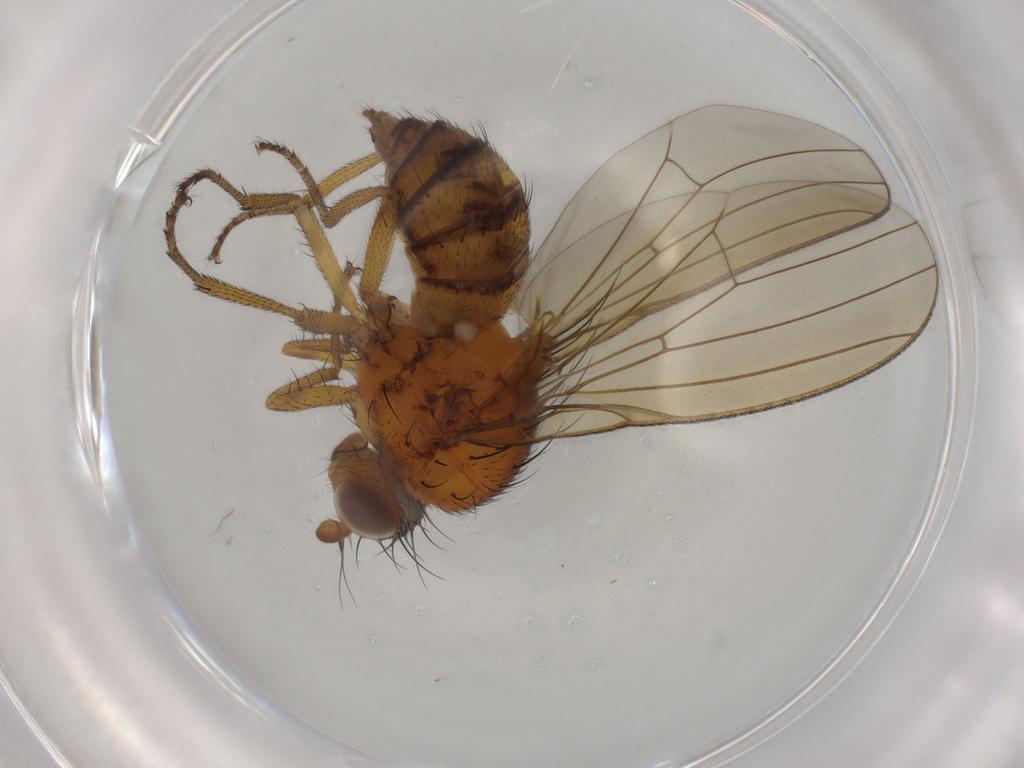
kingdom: Animalia
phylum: Arthropoda
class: Insecta
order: Diptera
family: Lauxaniidae
